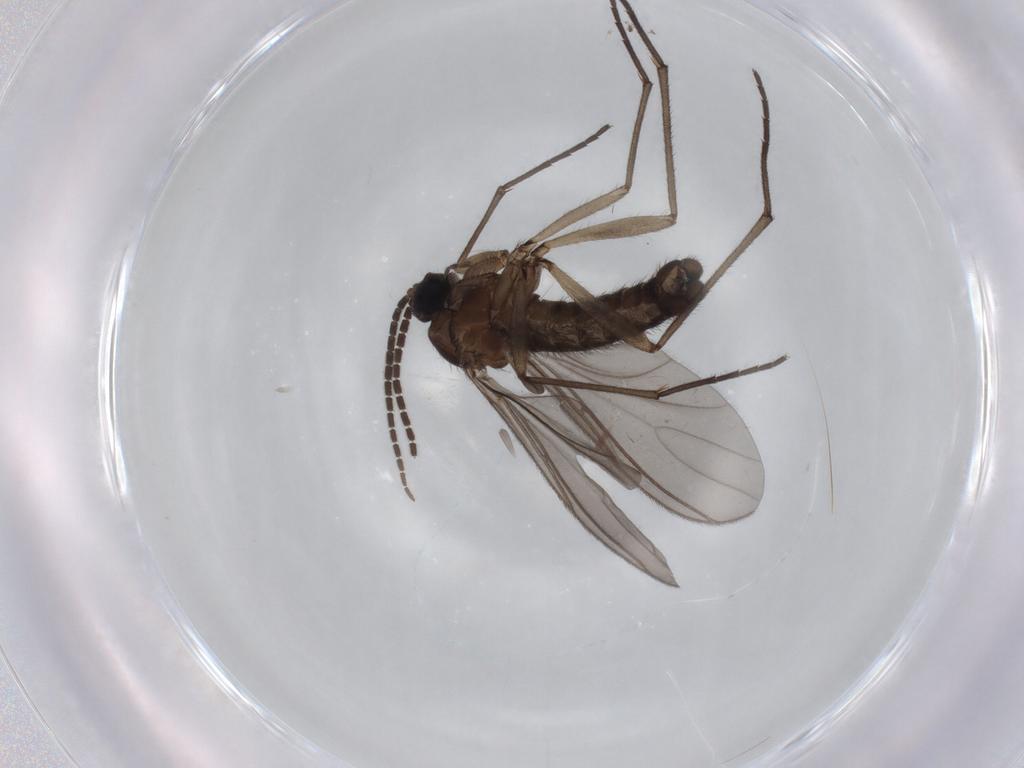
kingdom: Animalia
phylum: Arthropoda
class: Insecta
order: Diptera
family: Sciaridae
